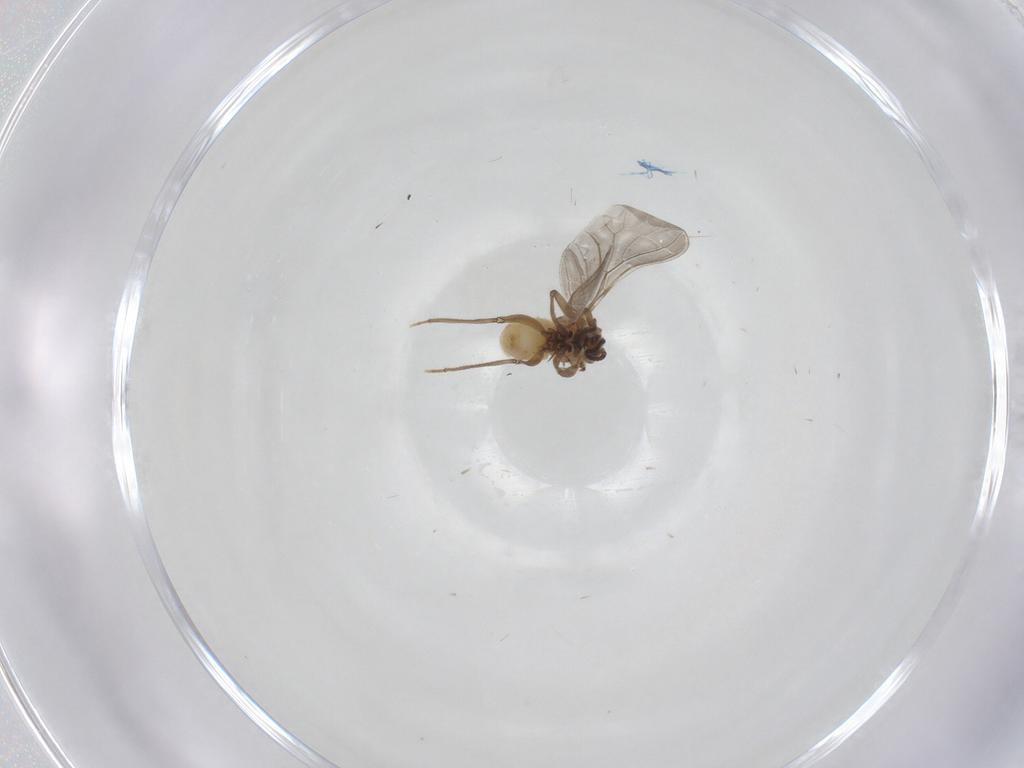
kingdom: Animalia
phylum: Arthropoda
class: Insecta
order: Neuroptera
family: Coniopterygidae
